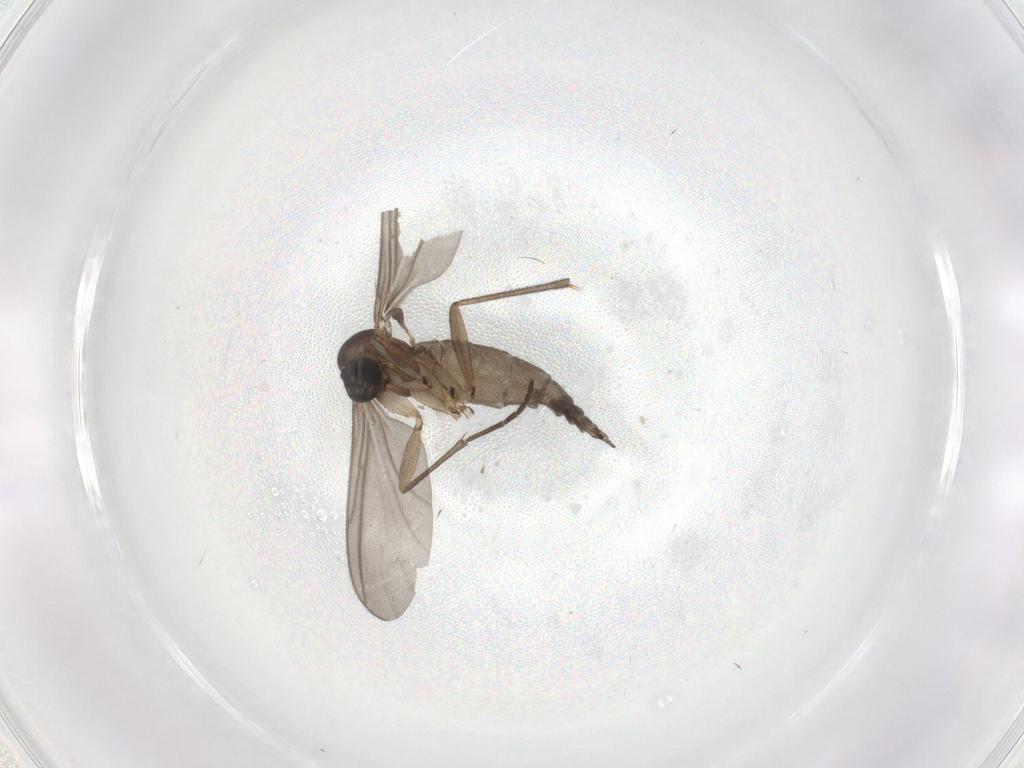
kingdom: Animalia
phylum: Arthropoda
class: Insecta
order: Diptera
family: Sciaridae
